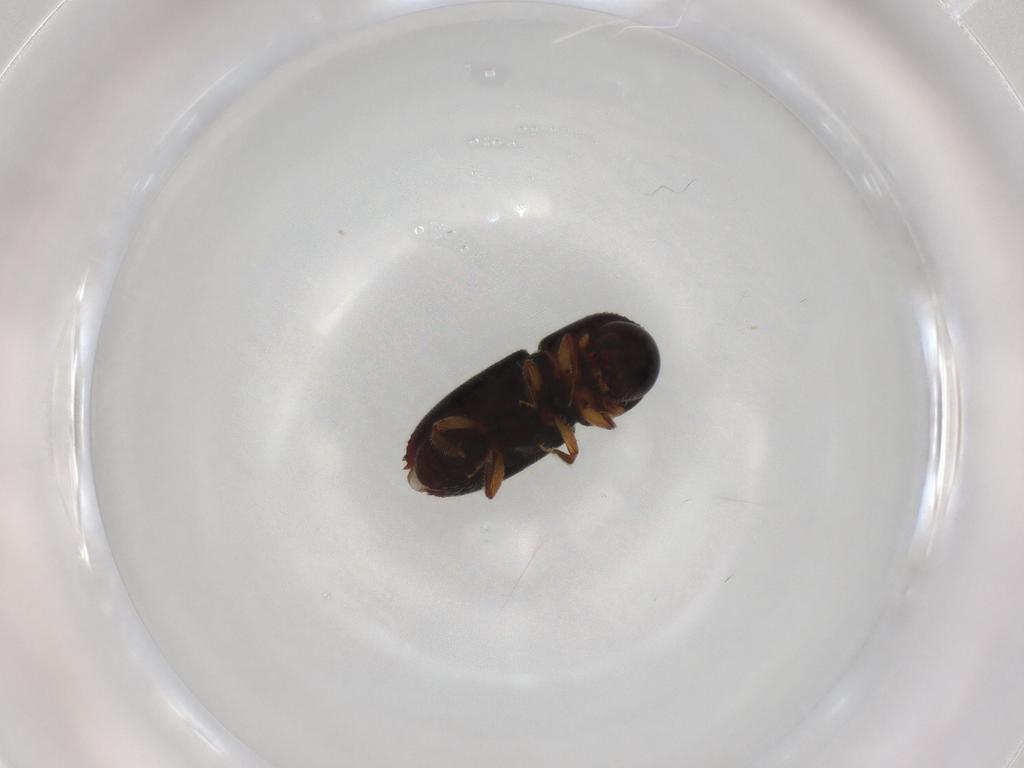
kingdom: Animalia
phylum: Arthropoda
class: Insecta
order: Coleoptera
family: Curculionidae
